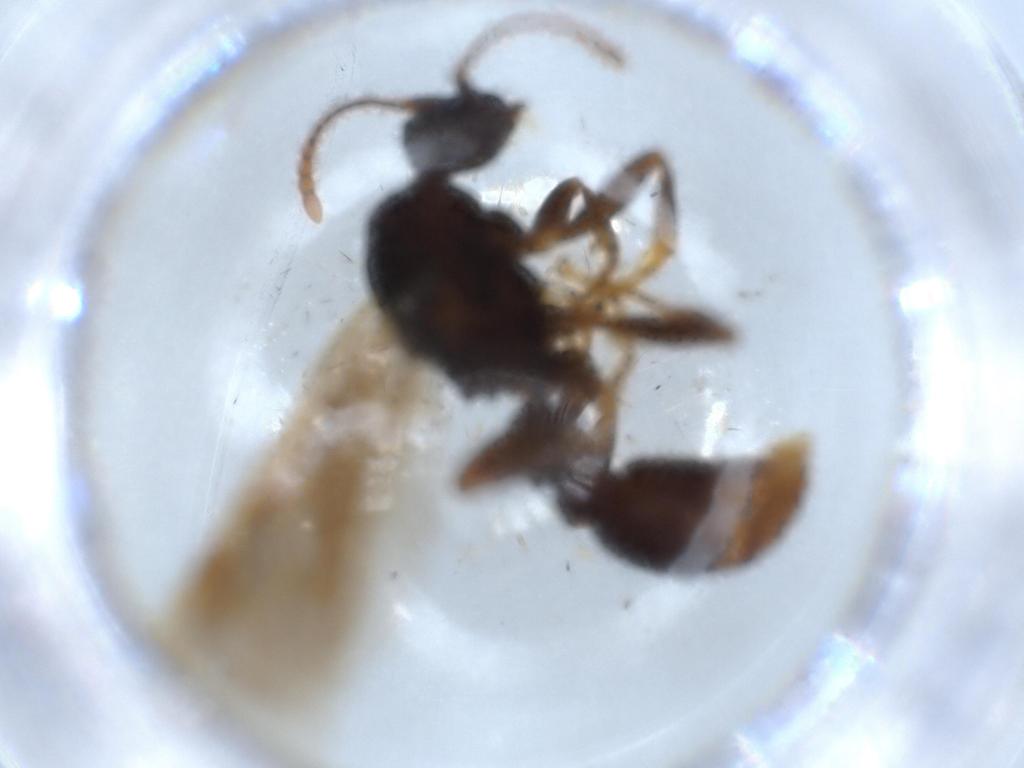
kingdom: Animalia
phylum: Arthropoda
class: Insecta
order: Hymenoptera
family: Formicidae
